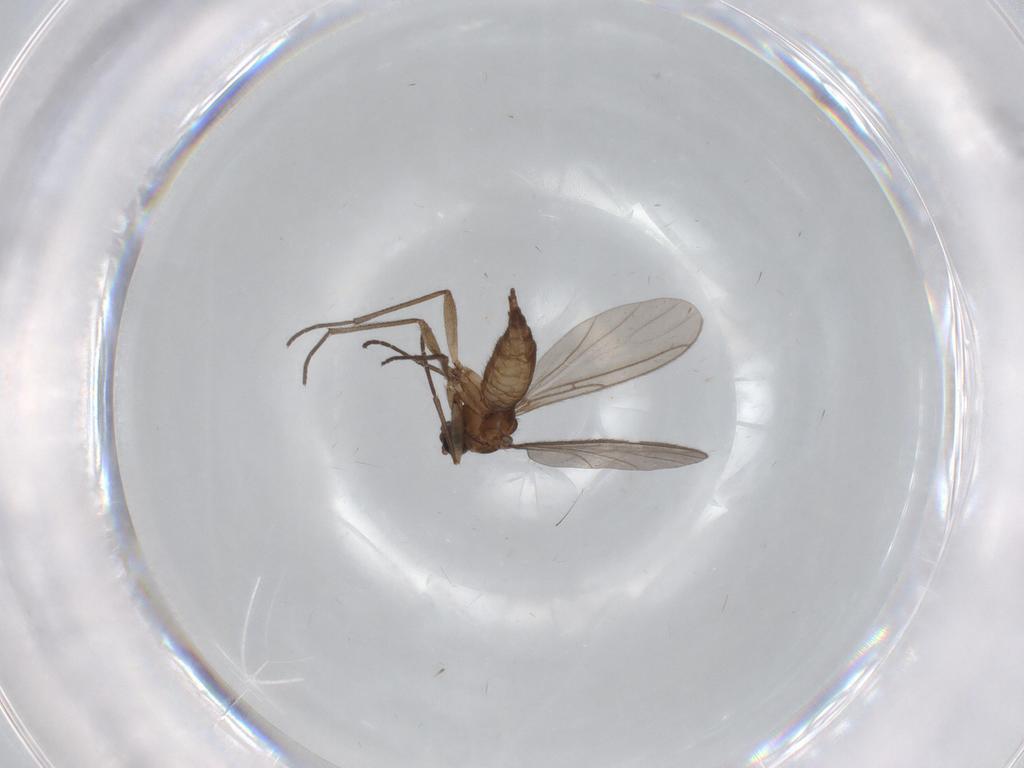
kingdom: Animalia
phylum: Arthropoda
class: Insecta
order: Diptera
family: Sciaridae
